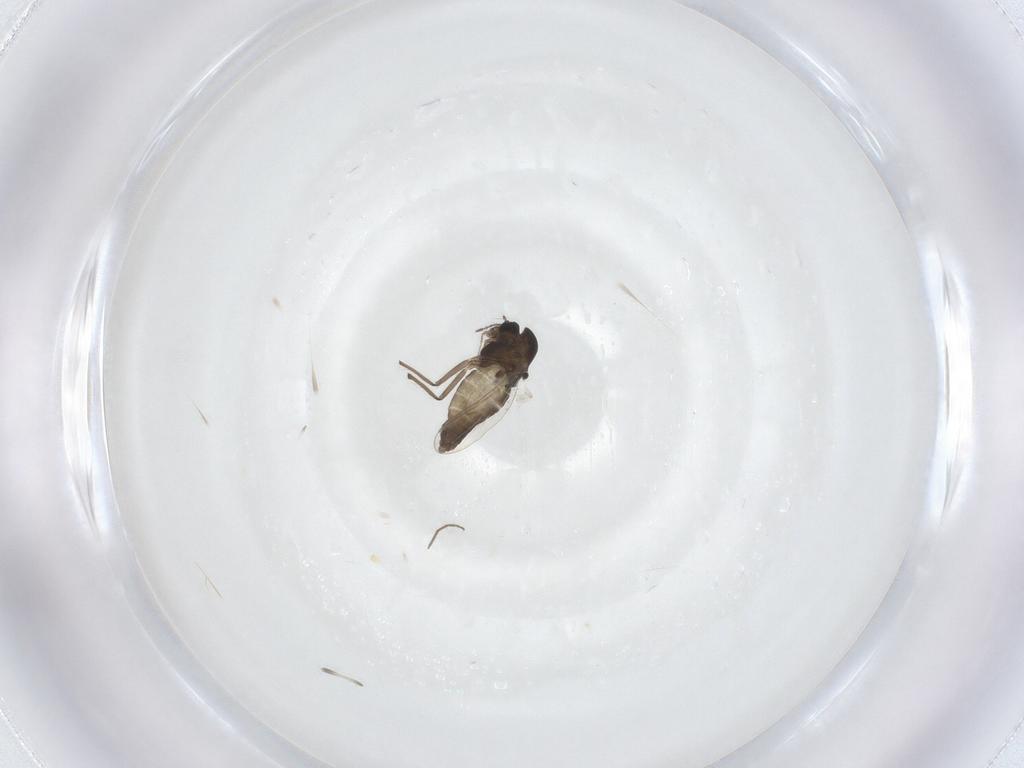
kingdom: Animalia
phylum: Arthropoda
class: Insecta
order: Diptera
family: Chironomidae
